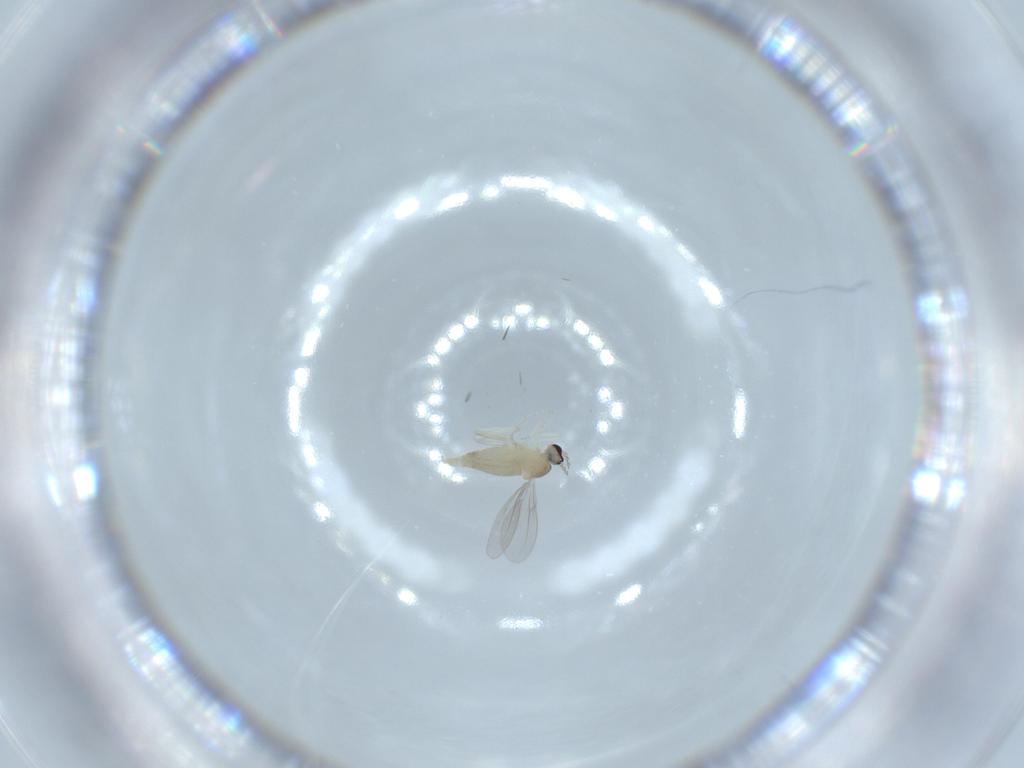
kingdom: Animalia
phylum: Arthropoda
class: Insecta
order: Diptera
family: Cecidomyiidae
